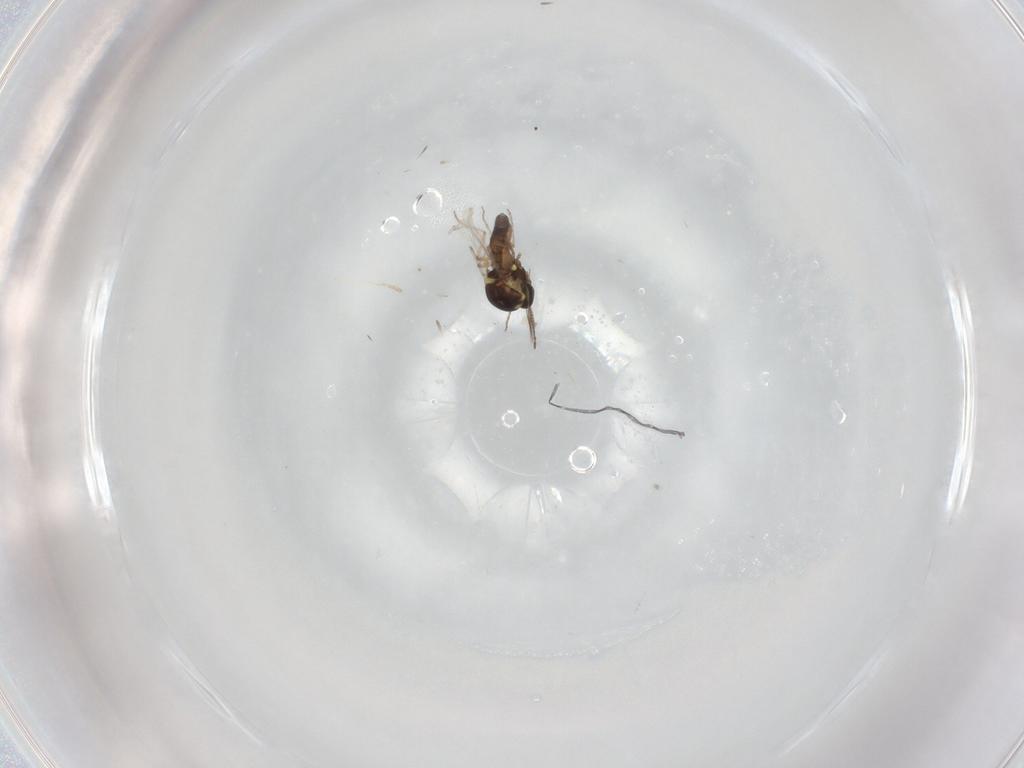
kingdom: Animalia
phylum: Arthropoda
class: Insecta
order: Diptera
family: Ceratopogonidae
